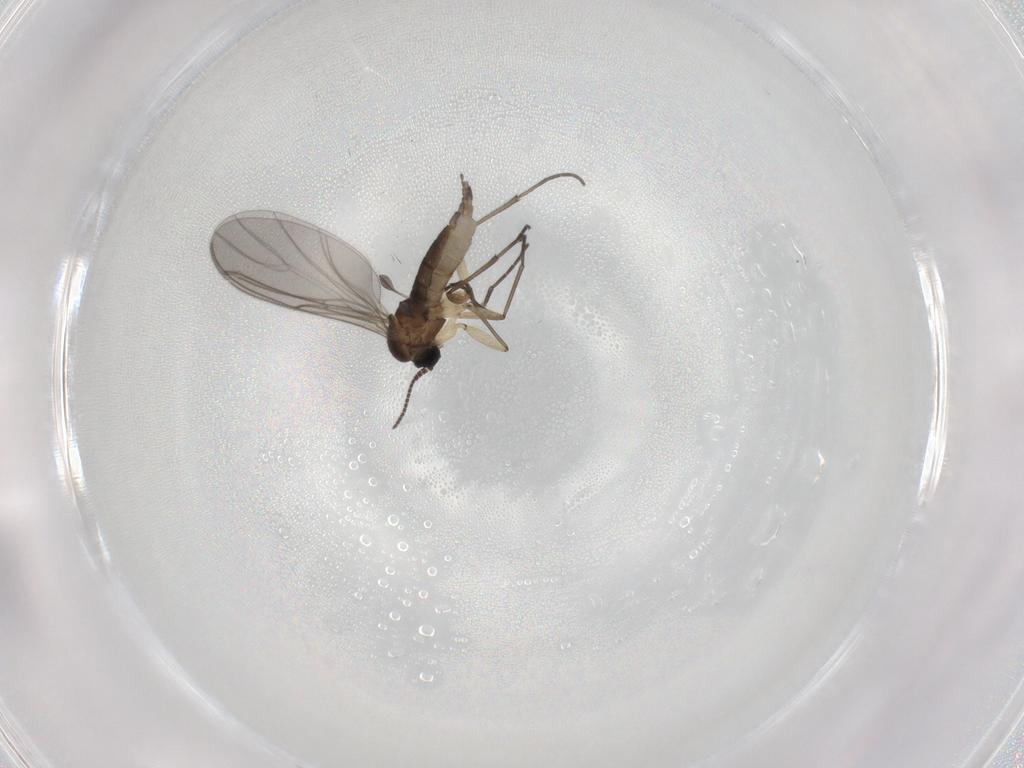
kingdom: Animalia
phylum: Arthropoda
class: Insecta
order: Diptera
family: Sciaridae
